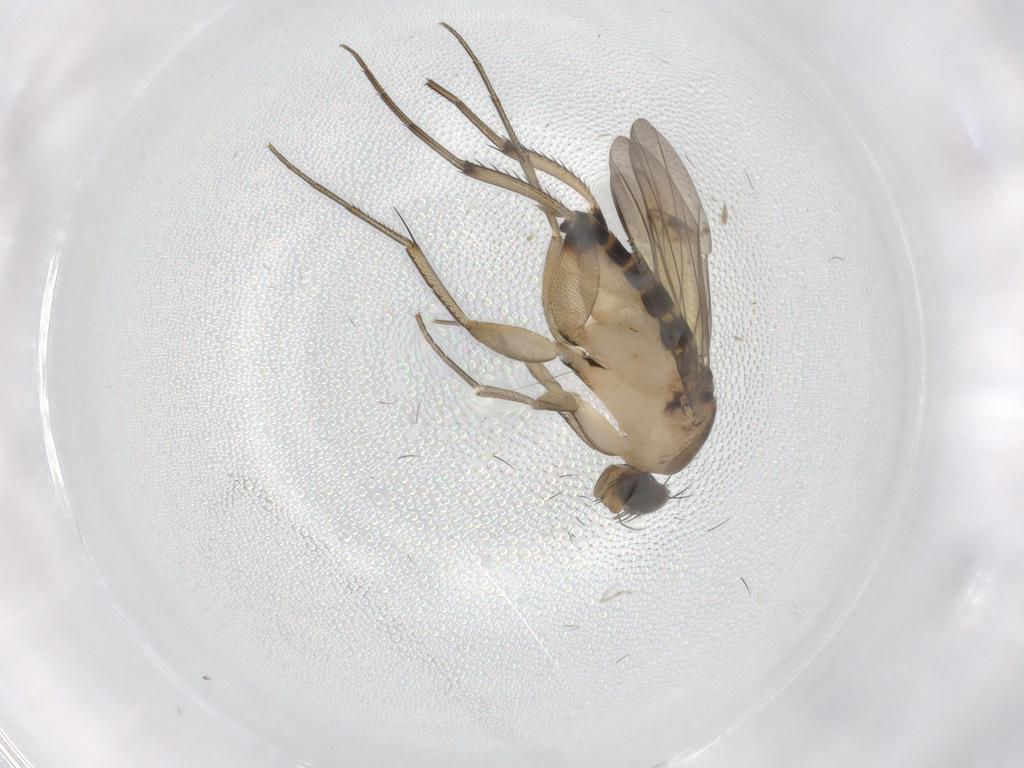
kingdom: Animalia
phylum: Arthropoda
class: Insecta
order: Diptera
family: Phoridae
